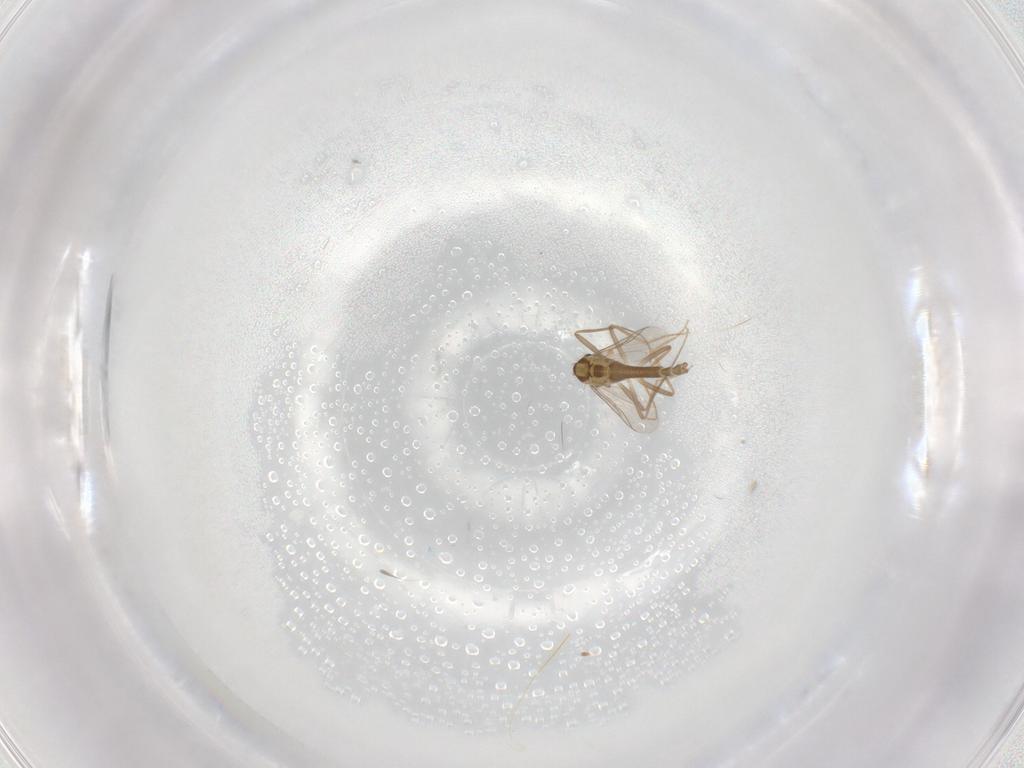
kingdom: Animalia
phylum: Arthropoda
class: Insecta
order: Diptera
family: Chironomidae
